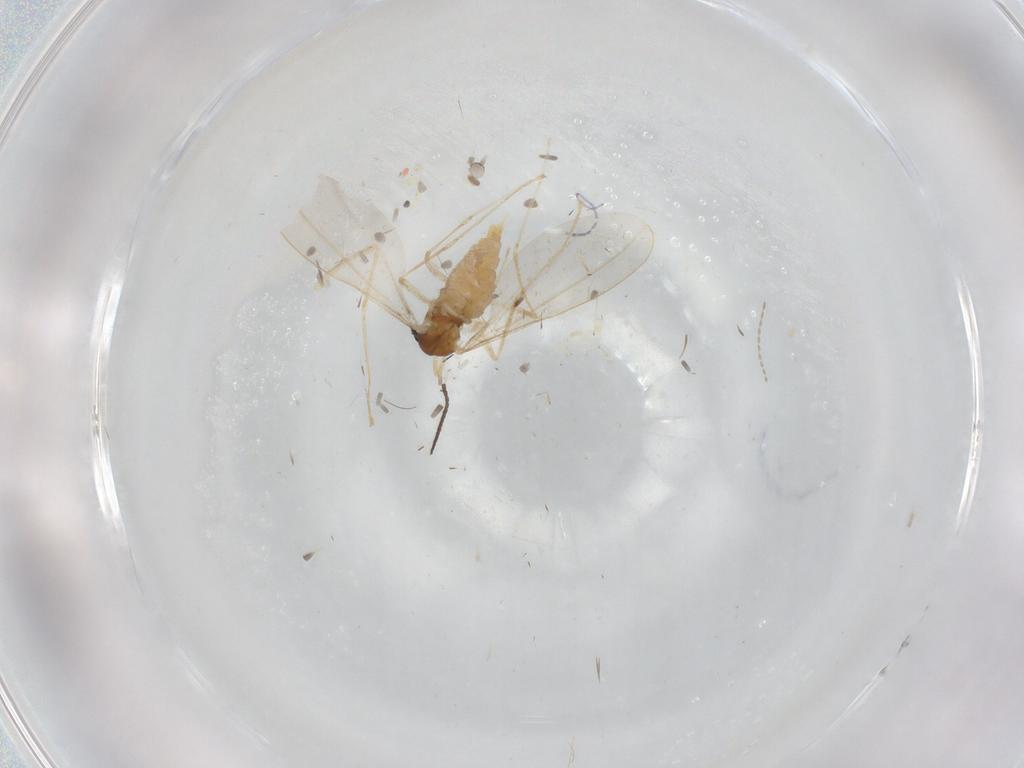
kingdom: Animalia
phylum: Arthropoda
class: Insecta
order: Diptera
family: Cecidomyiidae
